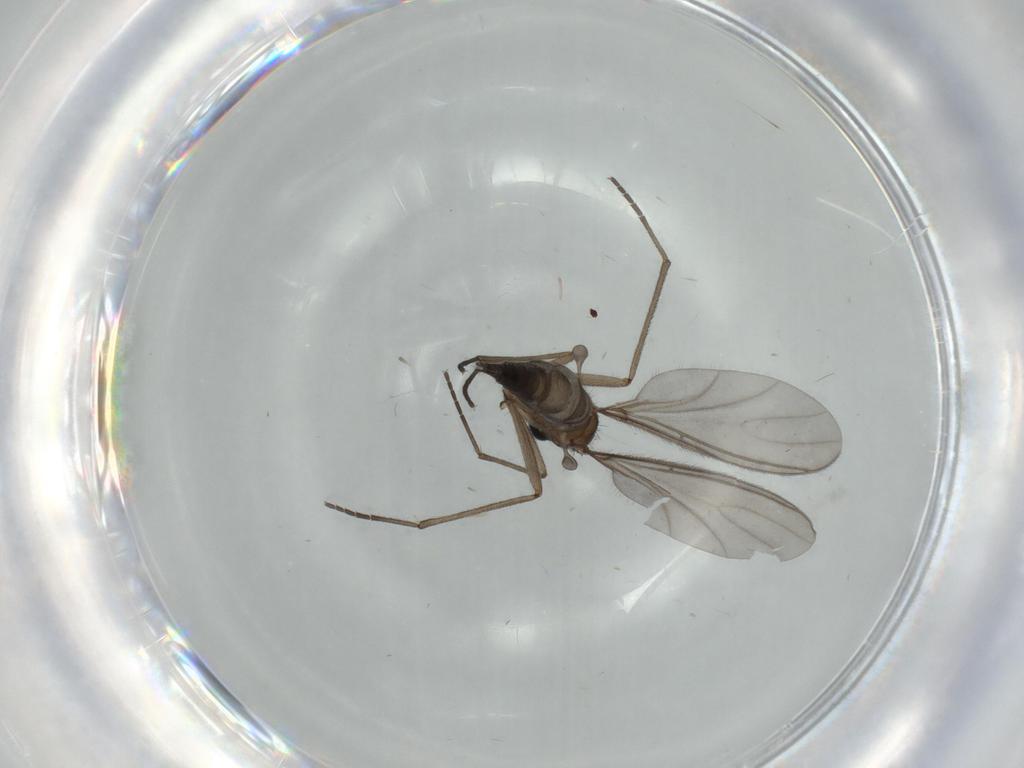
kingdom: Animalia
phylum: Arthropoda
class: Insecta
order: Diptera
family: Sciaridae
